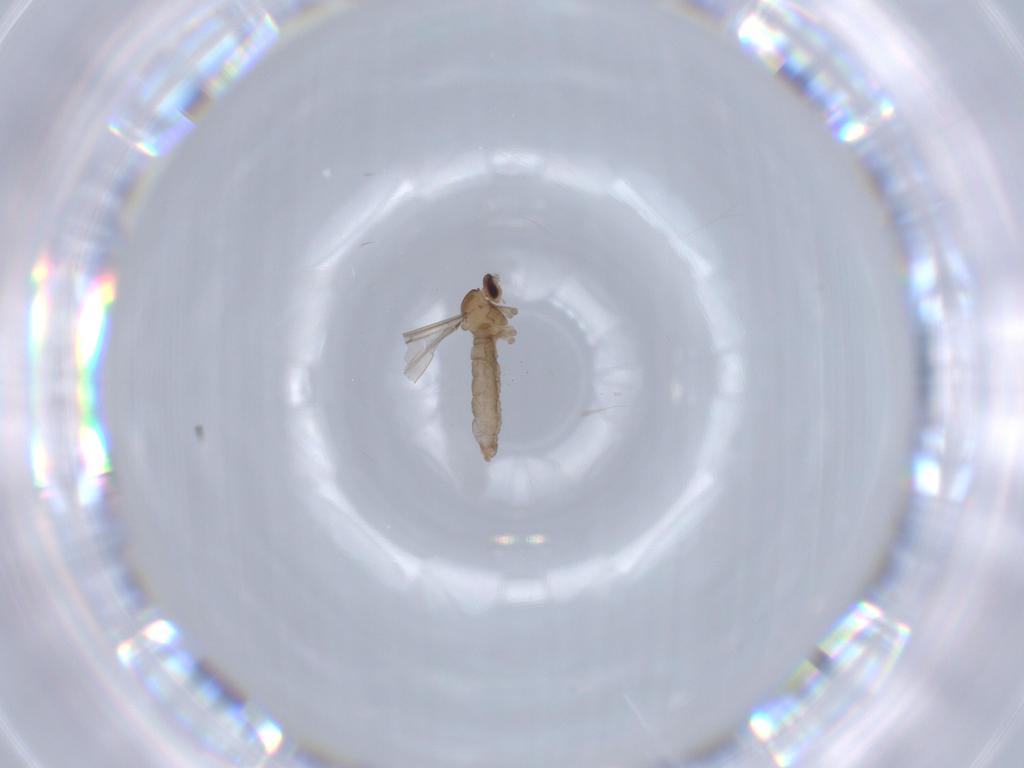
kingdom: Animalia
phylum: Arthropoda
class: Insecta
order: Diptera
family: Cecidomyiidae
